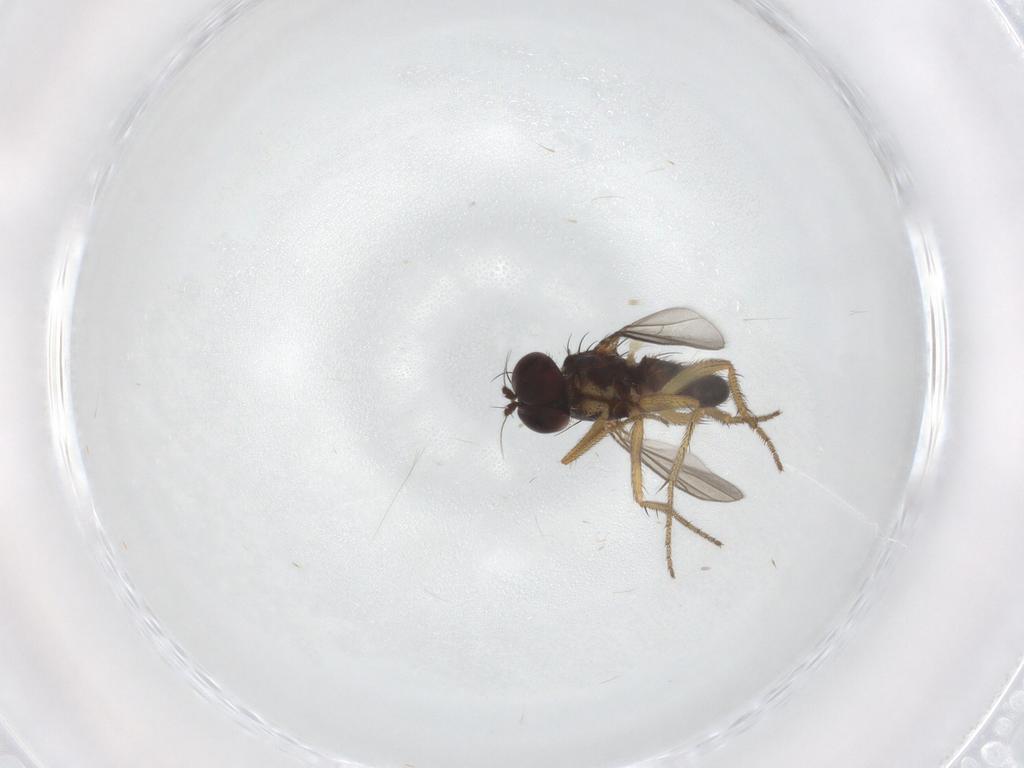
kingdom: Animalia
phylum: Arthropoda
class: Insecta
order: Diptera
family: Dolichopodidae
